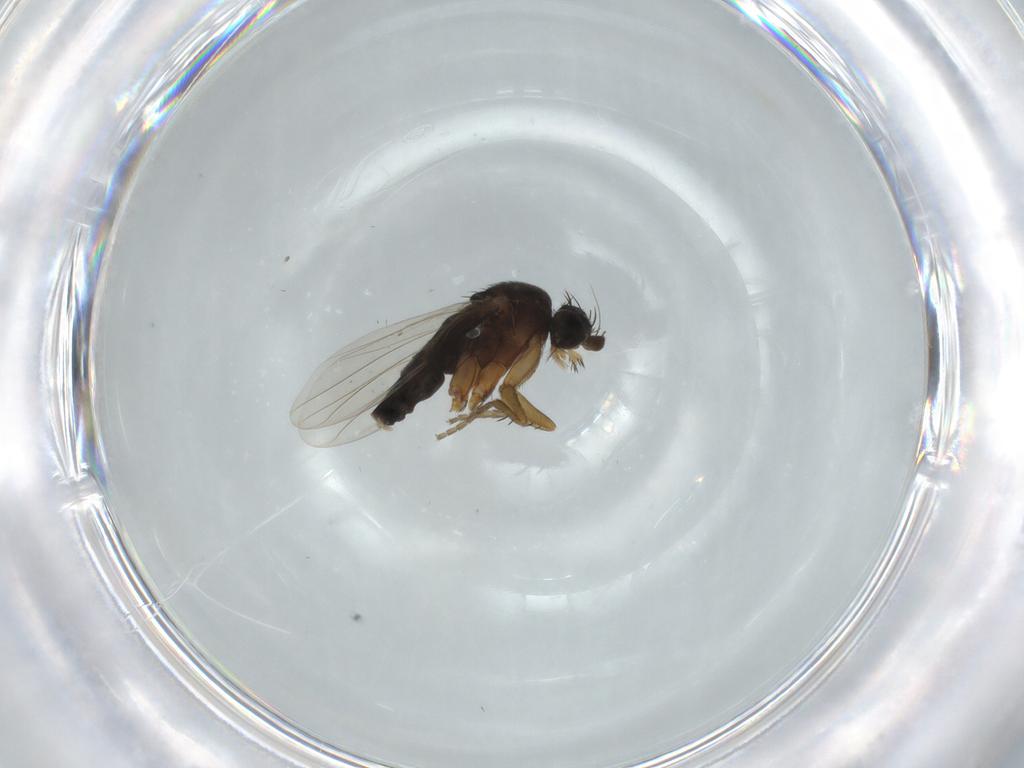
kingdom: Animalia
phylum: Arthropoda
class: Insecta
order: Diptera
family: Phoridae
